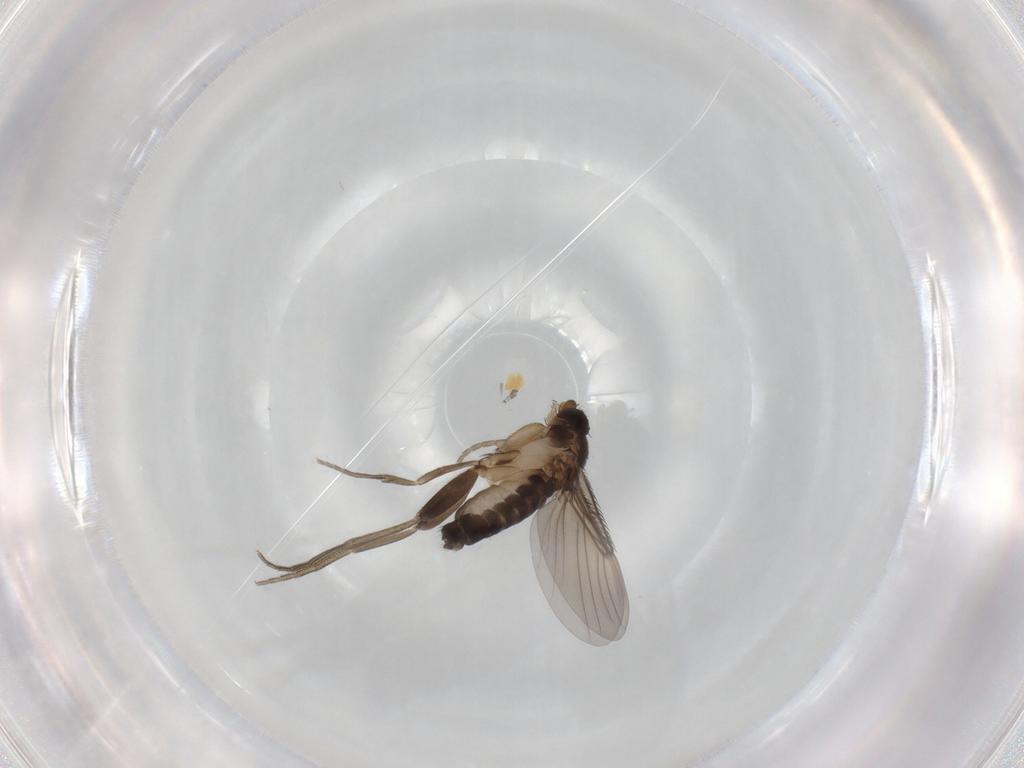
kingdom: Animalia
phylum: Arthropoda
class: Insecta
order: Diptera
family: Phoridae
